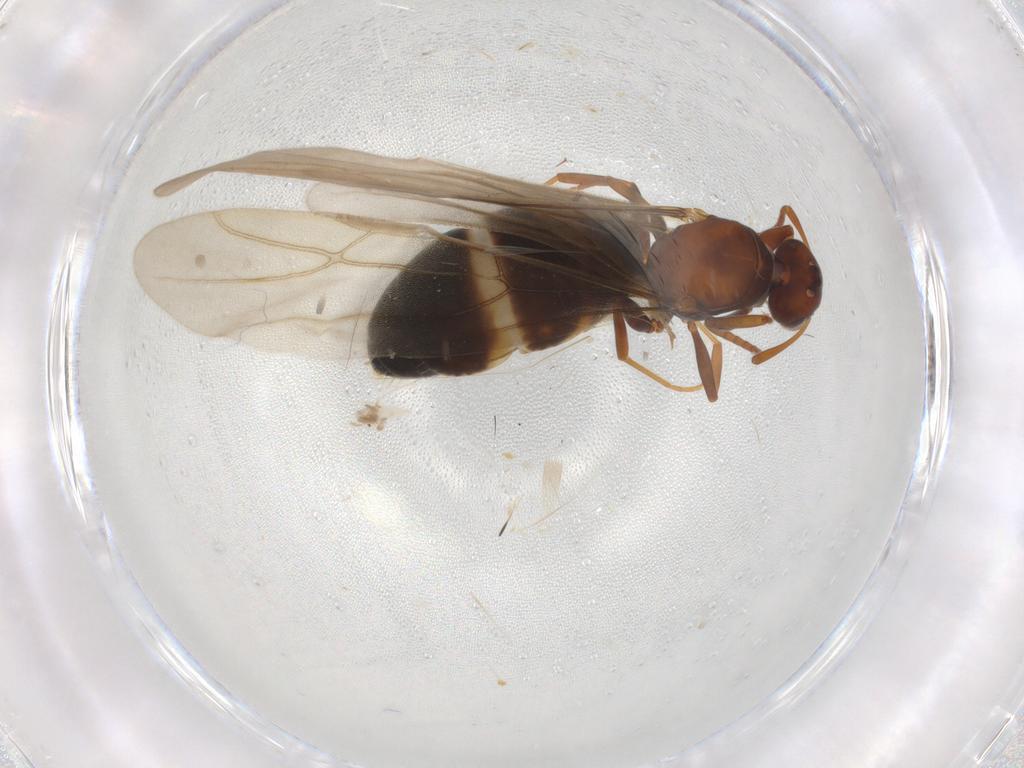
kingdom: Animalia
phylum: Arthropoda
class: Insecta
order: Hymenoptera
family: Formicidae
